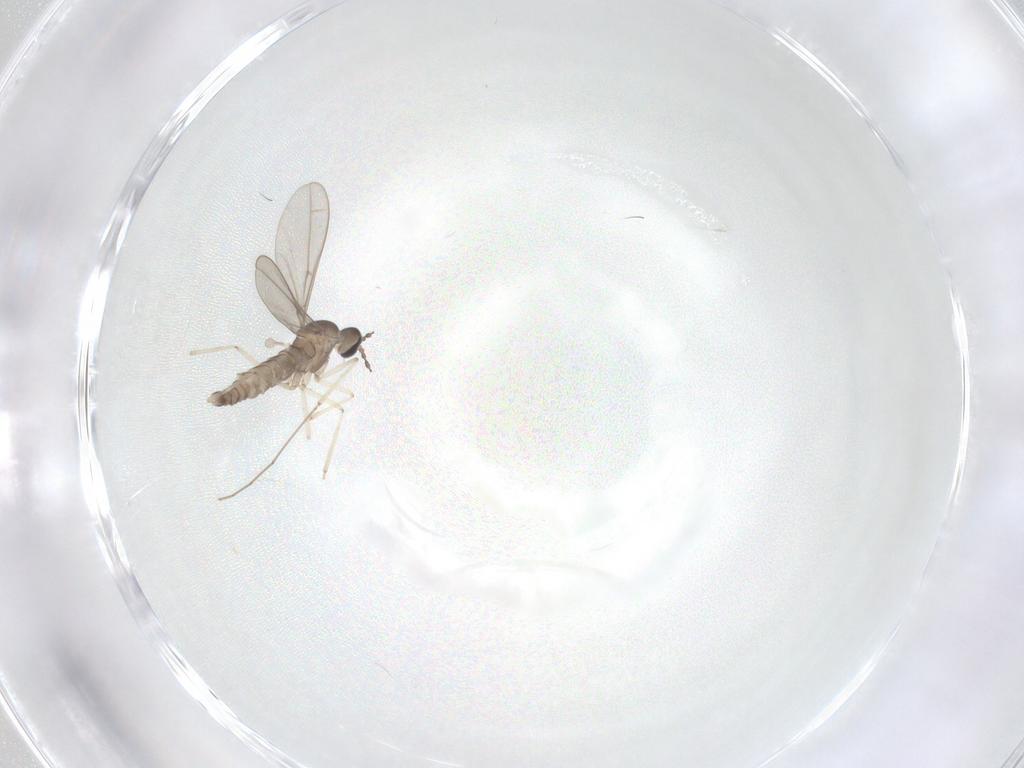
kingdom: Animalia
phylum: Arthropoda
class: Insecta
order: Diptera
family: Cecidomyiidae
